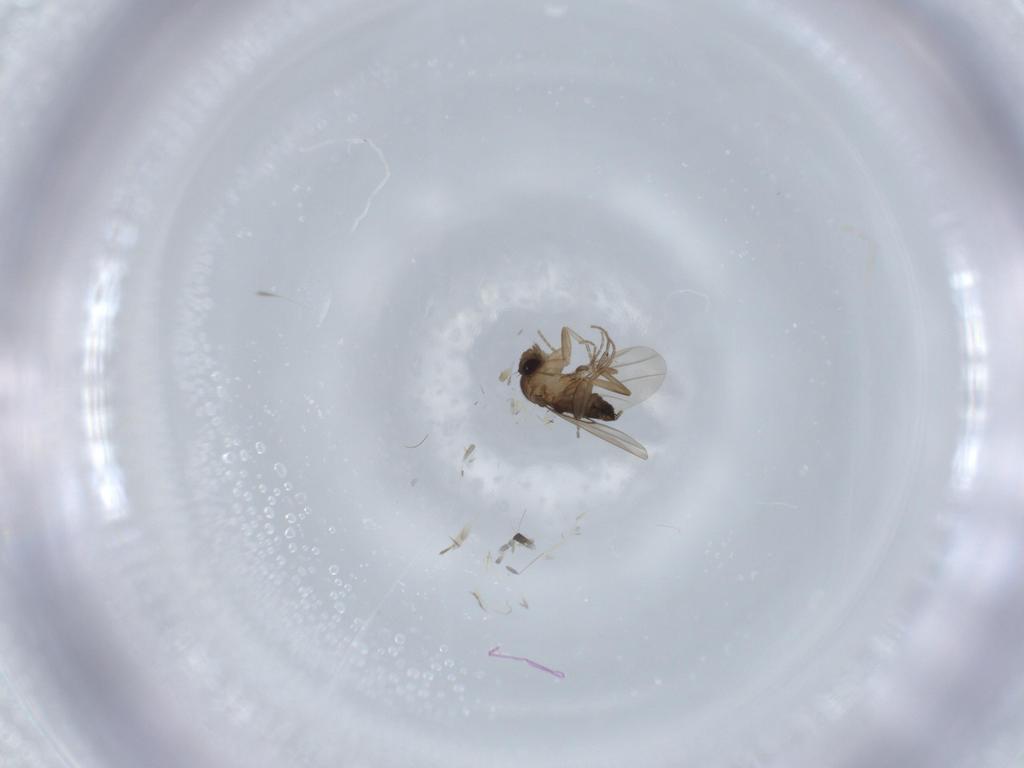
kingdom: Animalia
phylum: Arthropoda
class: Insecta
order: Diptera
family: Phoridae
